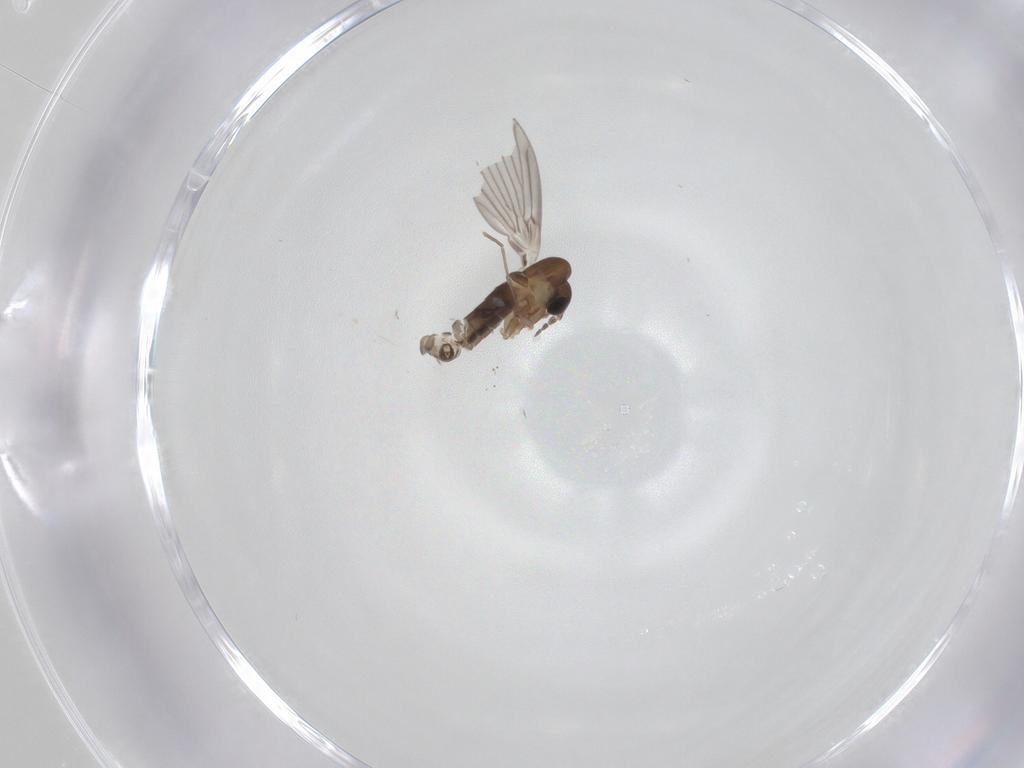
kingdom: Animalia
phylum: Arthropoda
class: Insecta
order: Diptera
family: Psychodidae
